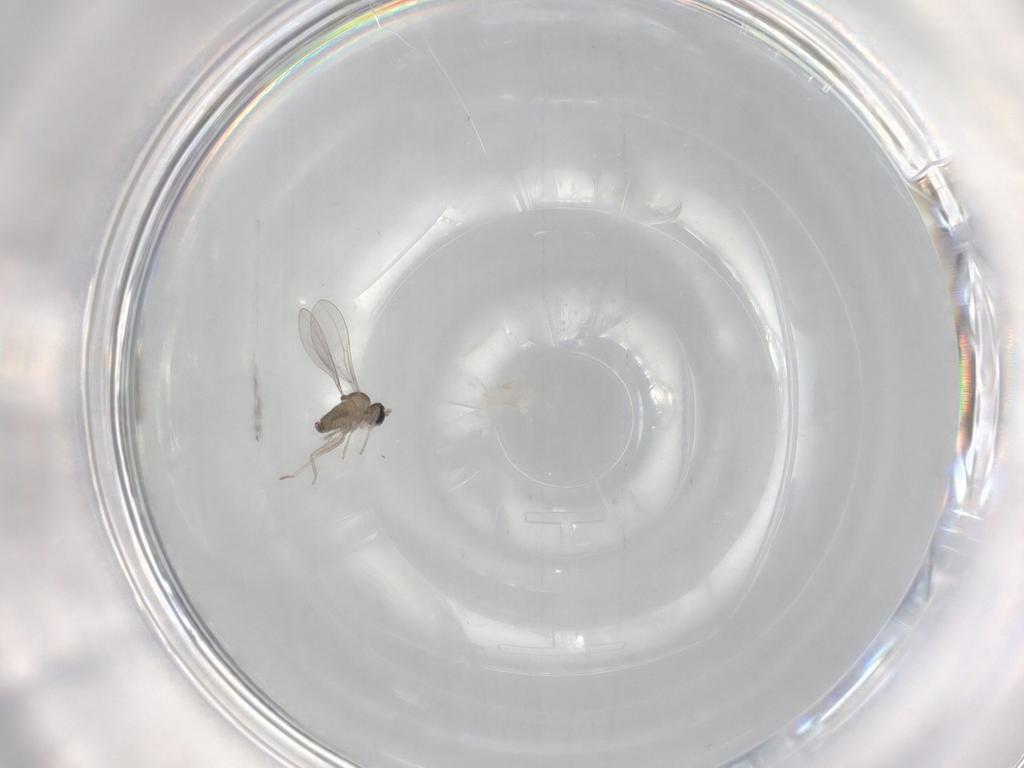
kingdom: Animalia
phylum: Arthropoda
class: Insecta
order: Diptera
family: Cecidomyiidae
